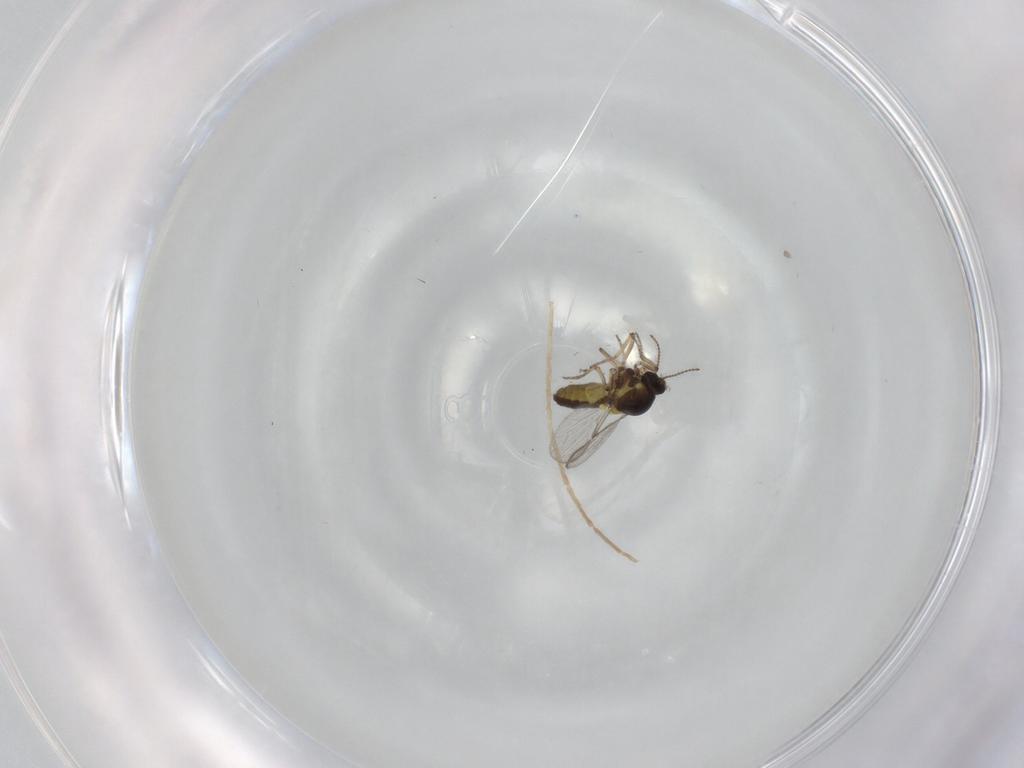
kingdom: Animalia
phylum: Arthropoda
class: Insecta
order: Diptera
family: Ceratopogonidae
